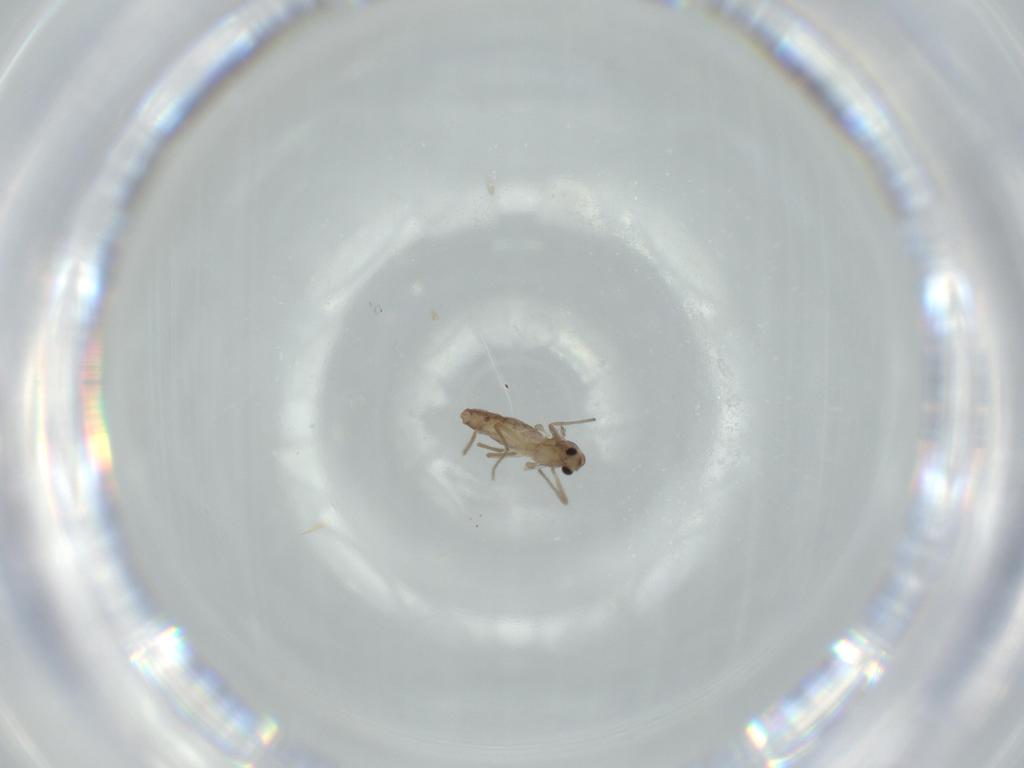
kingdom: Animalia
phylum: Arthropoda
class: Insecta
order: Diptera
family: Chironomidae
